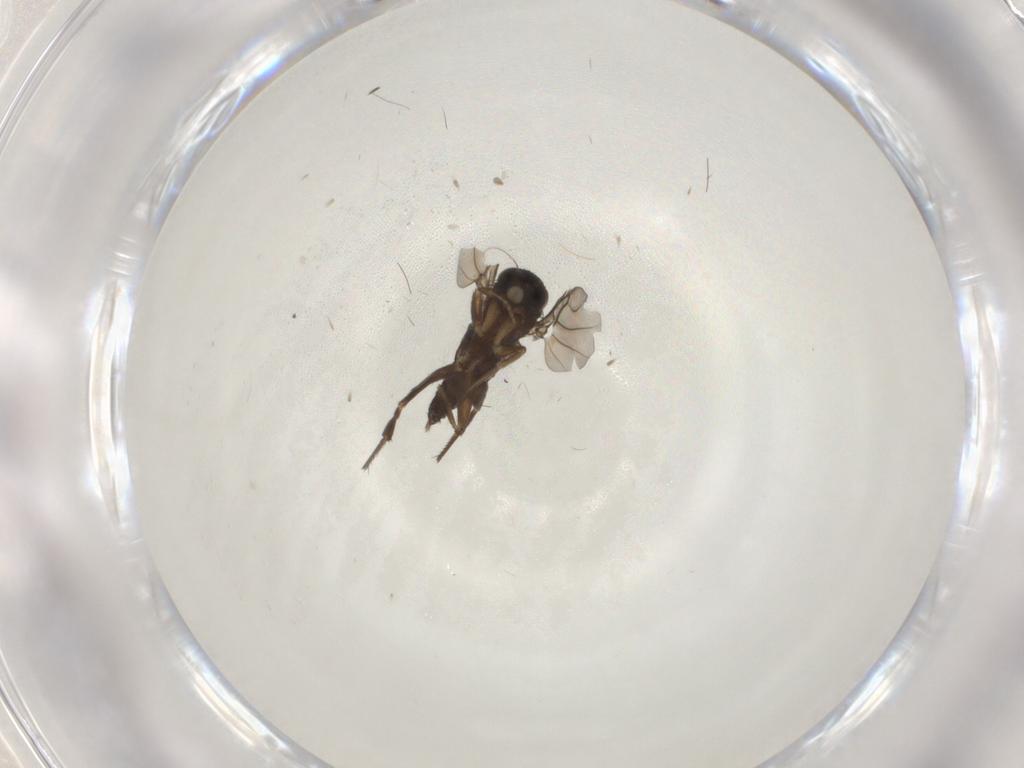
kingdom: Animalia
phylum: Arthropoda
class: Insecta
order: Diptera
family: Phoridae
